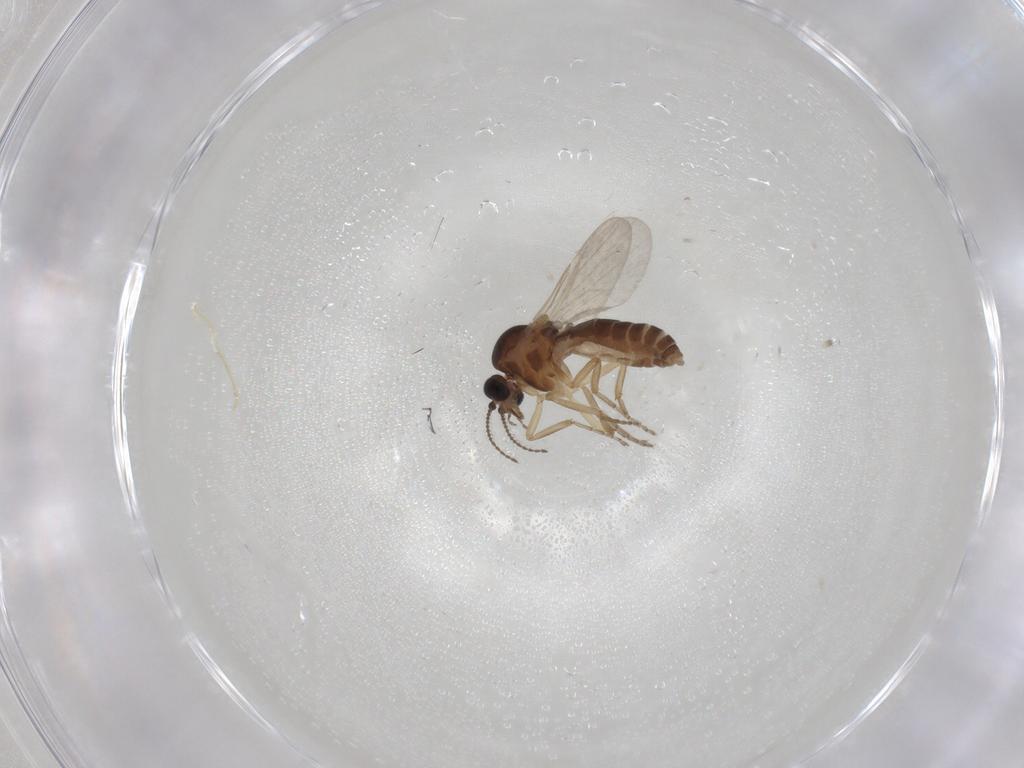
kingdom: Animalia
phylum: Arthropoda
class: Insecta
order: Diptera
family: Ceratopogonidae
